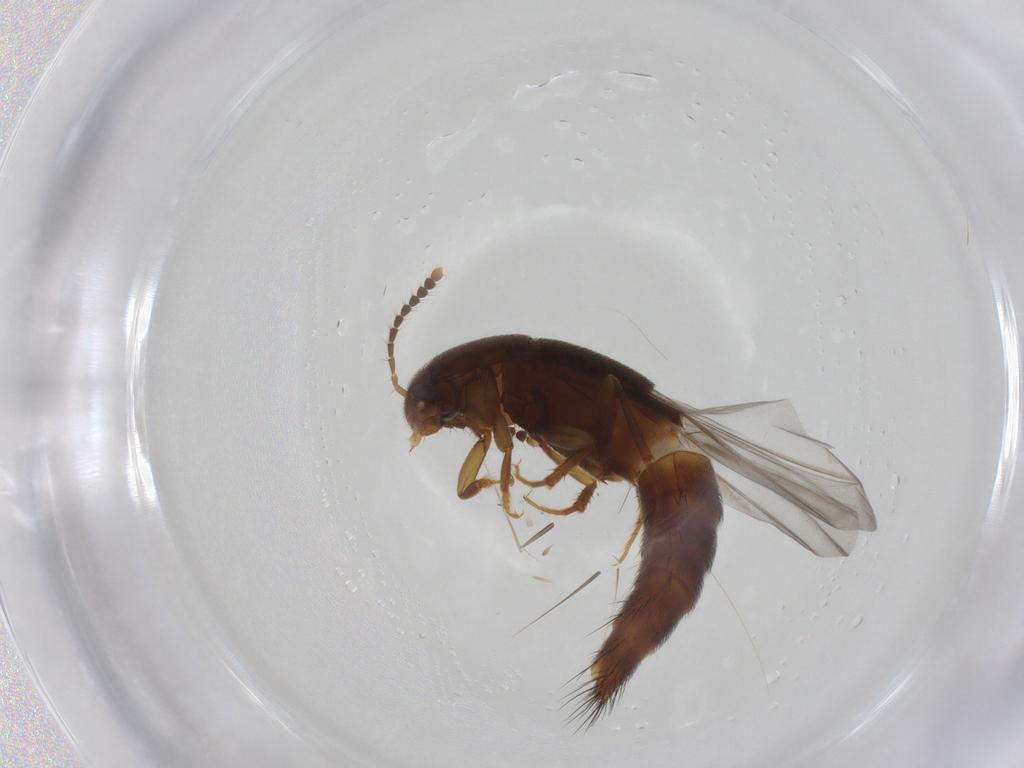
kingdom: Animalia
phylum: Arthropoda
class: Insecta
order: Coleoptera
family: Staphylinidae
